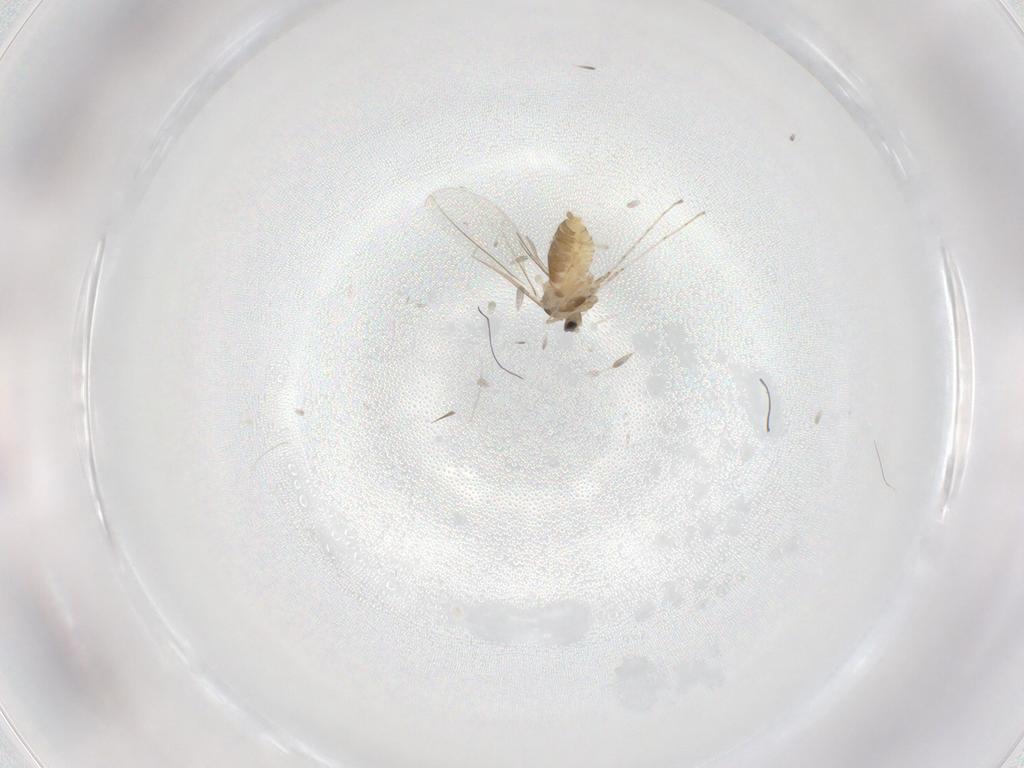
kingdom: Animalia
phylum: Arthropoda
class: Insecta
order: Diptera
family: Cecidomyiidae
